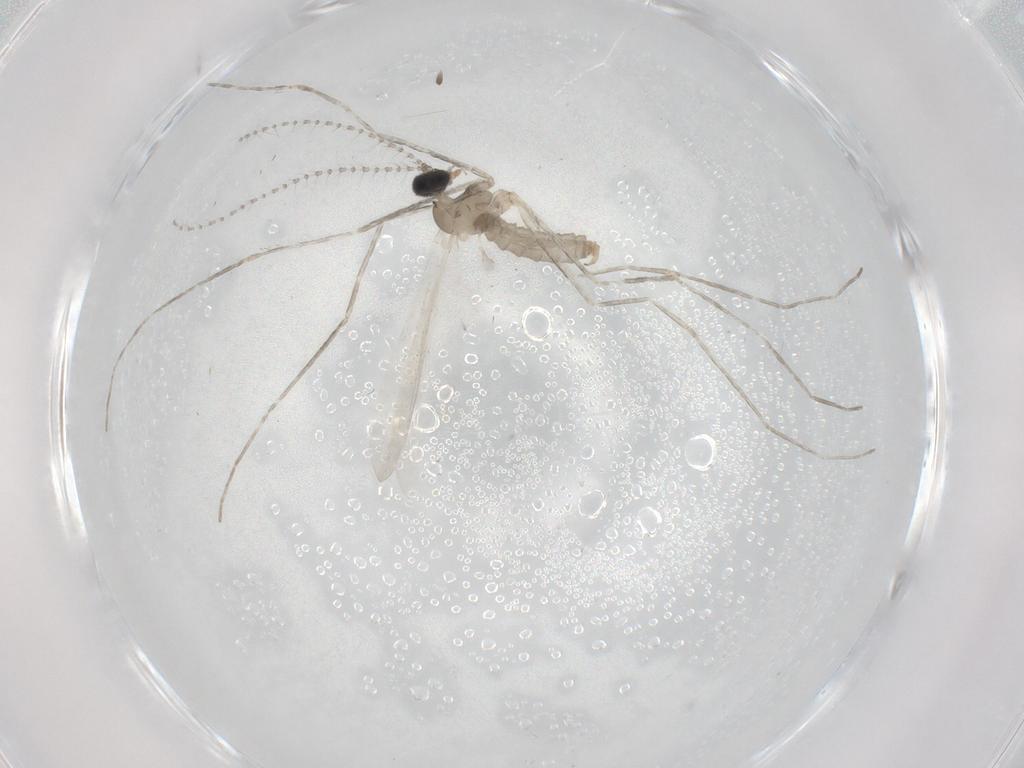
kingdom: Animalia
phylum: Arthropoda
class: Insecta
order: Diptera
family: Cecidomyiidae
